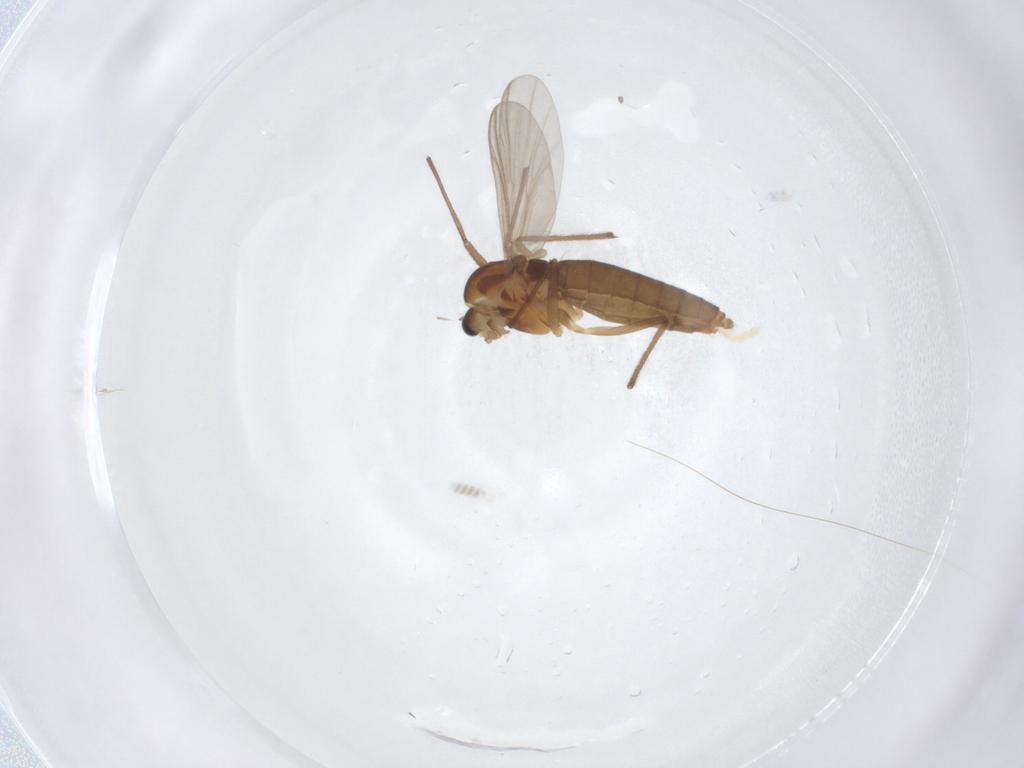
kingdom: Animalia
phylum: Arthropoda
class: Insecta
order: Diptera
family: Chironomidae
